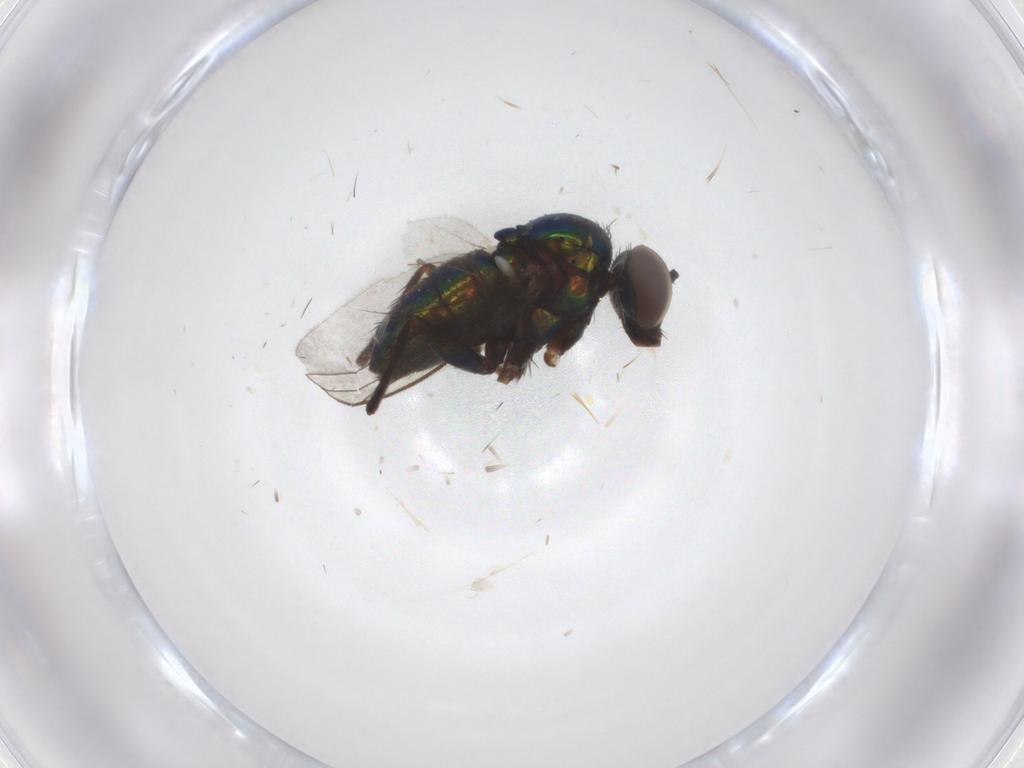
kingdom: Animalia
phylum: Arthropoda
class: Insecta
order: Diptera
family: Dolichopodidae
